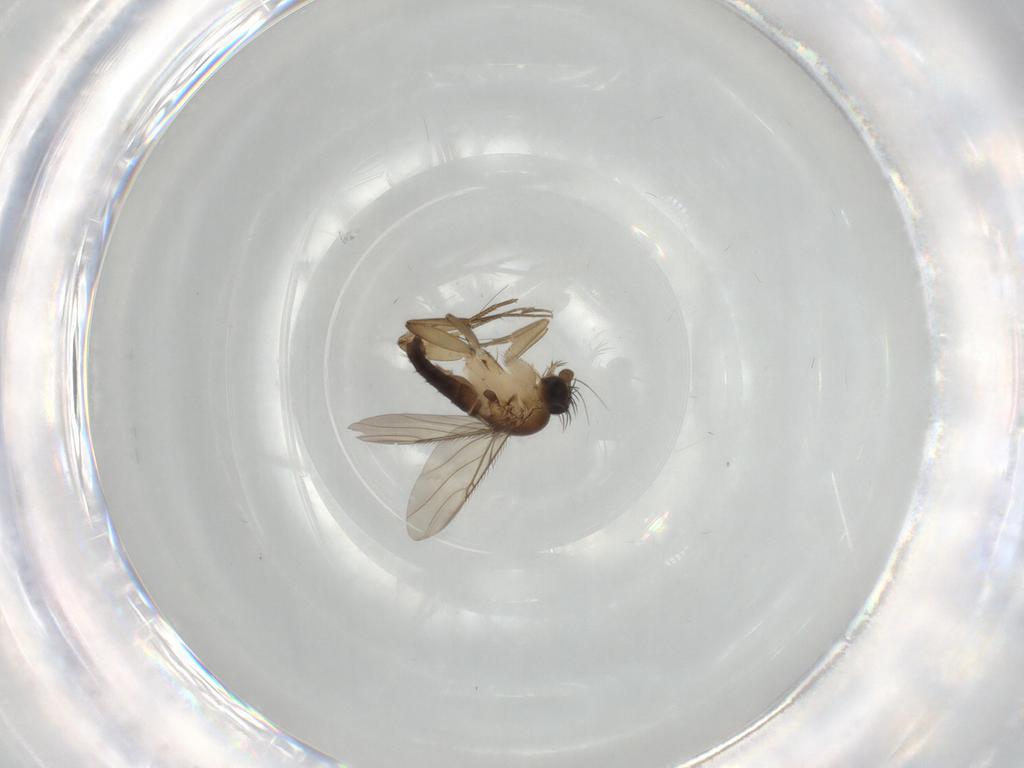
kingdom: Animalia
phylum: Arthropoda
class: Insecta
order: Diptera
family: Phoridae
